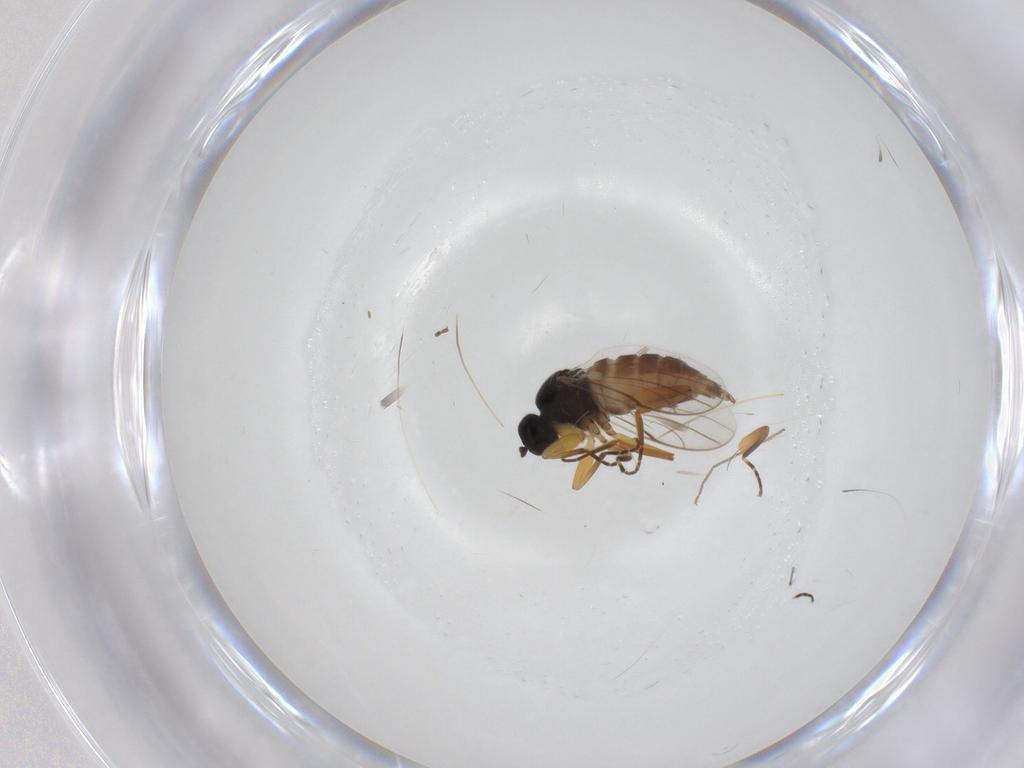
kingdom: Animalia
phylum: Arthropoda
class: Insecta
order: Diptera
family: Hybotidae
